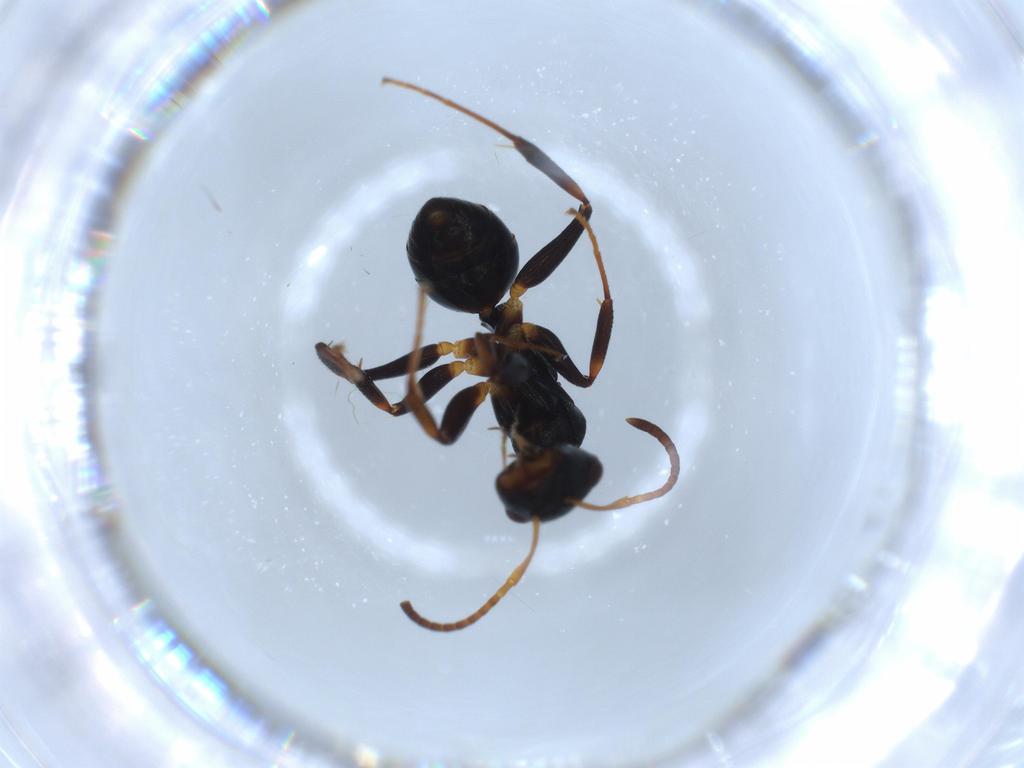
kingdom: Animalia
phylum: Arthropoda
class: Insecta
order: Hymenoptera
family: Formicidae
